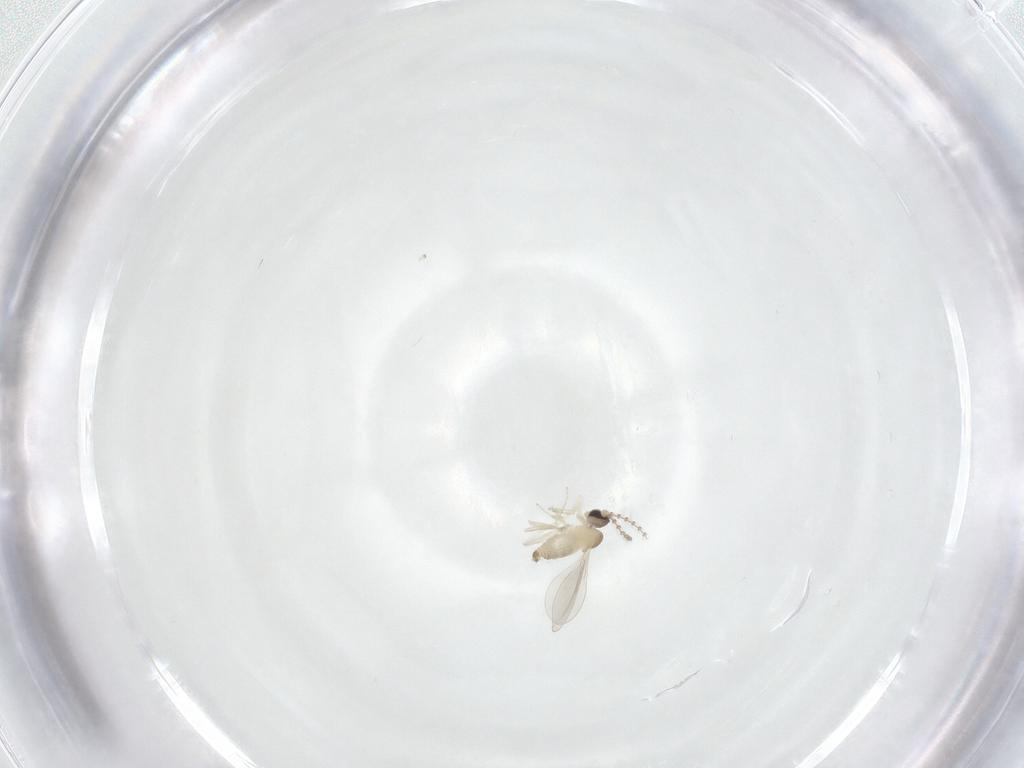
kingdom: Animalia
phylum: Arthropoda
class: Insecta
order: Diptera
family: Cecidomyiidae
